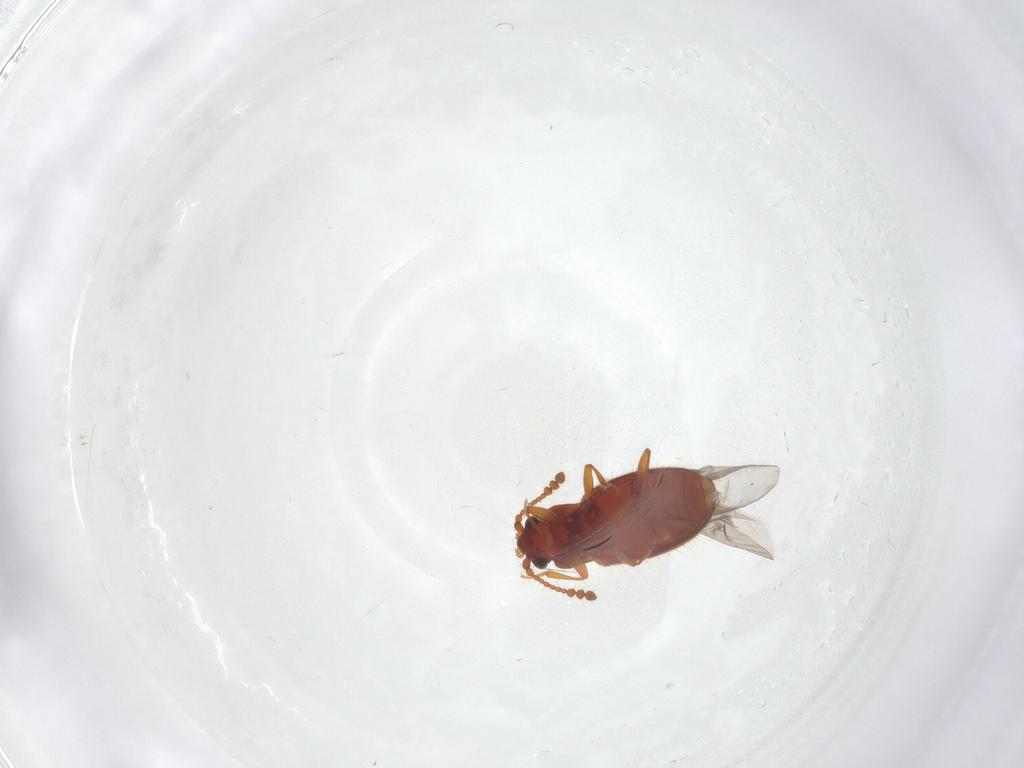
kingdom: Animalia
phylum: Arthropoda
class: Insecta
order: Coleoptera
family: Cryptophagidae
